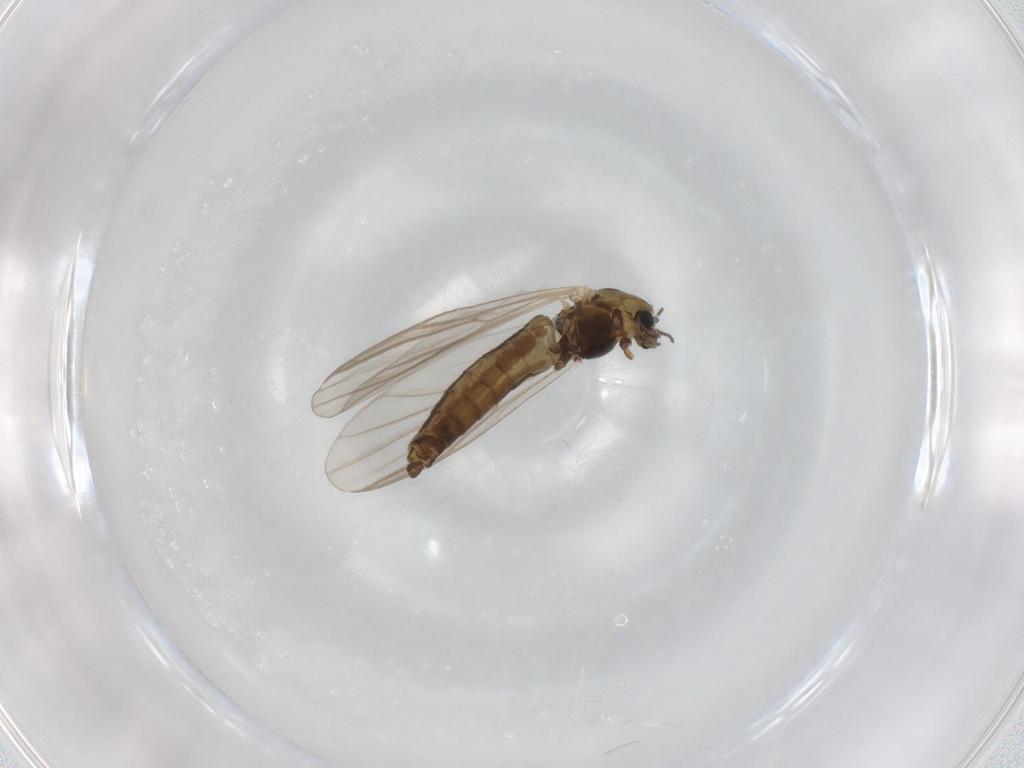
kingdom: Animalia
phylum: Arthropoda
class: Insecta
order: Diptera
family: Chironomidae
